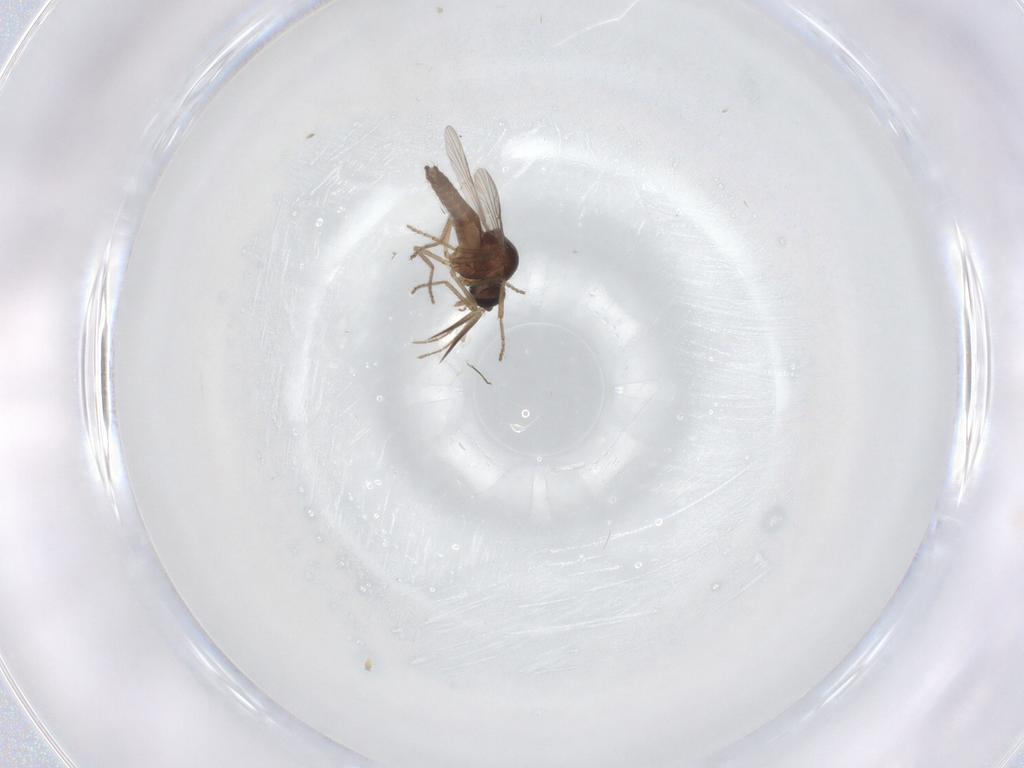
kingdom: Animalia
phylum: Arthropoda
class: Insecta
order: Diptera
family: Ceratopogonidae
